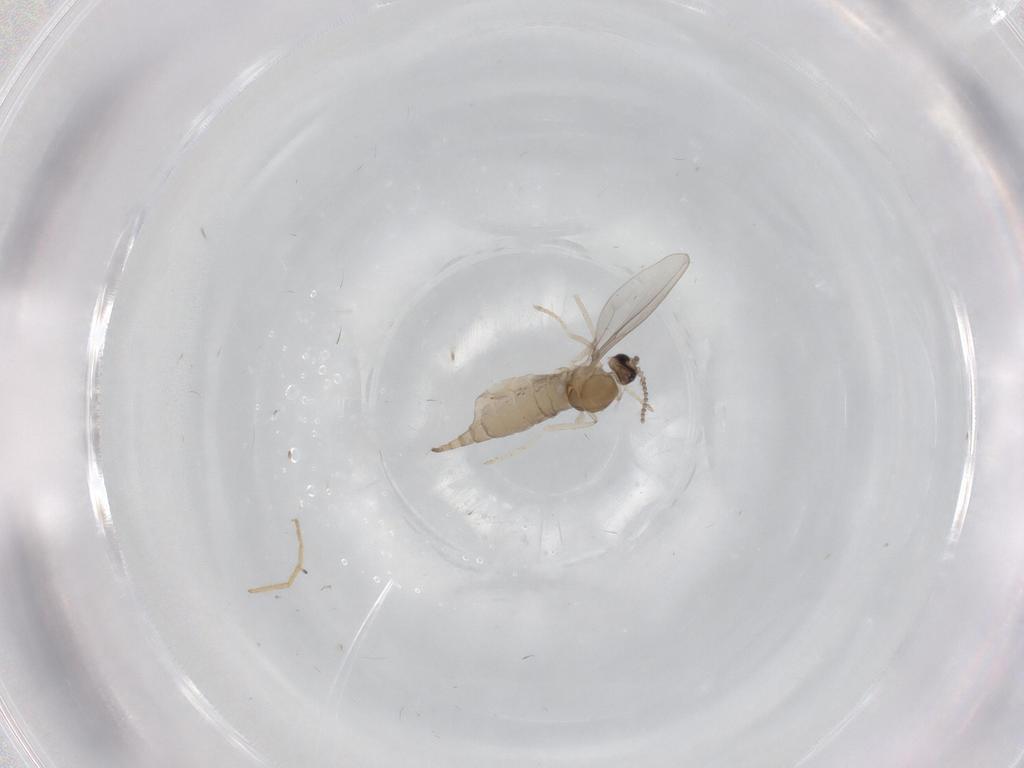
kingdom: Animalia
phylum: Arthropoda
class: Insecta
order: Diptera
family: Cecidomyiidae
